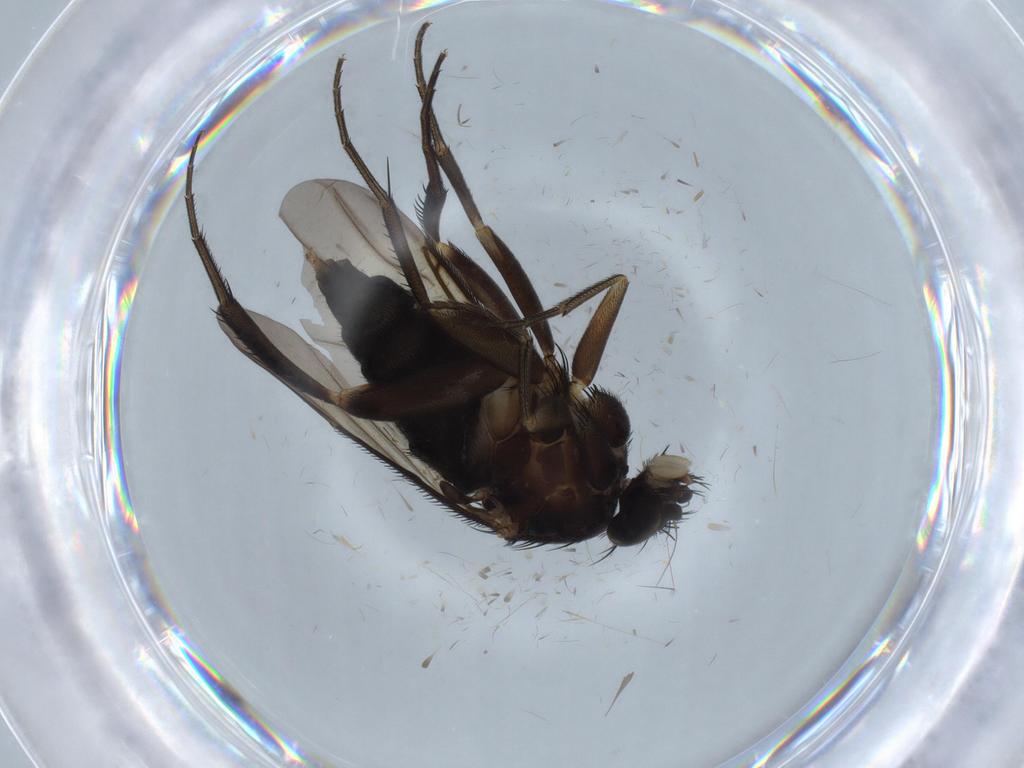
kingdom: Animalia
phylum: Arthropoda
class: Insecta
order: Diptera
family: Phoridae
